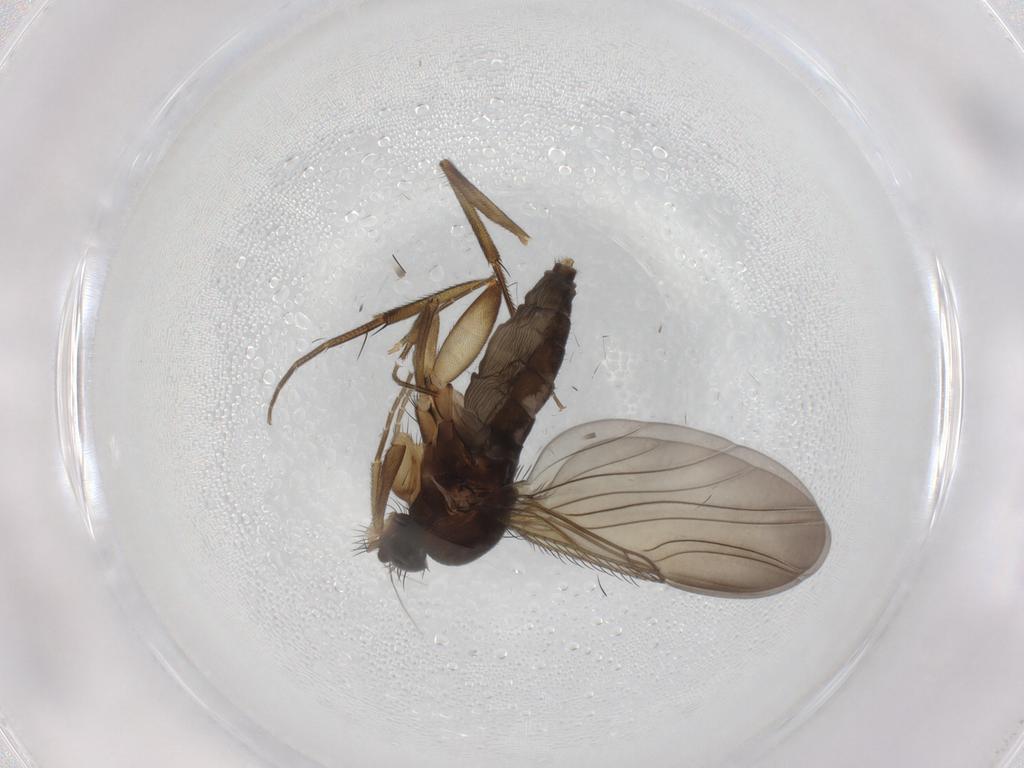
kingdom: Animalia
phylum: Arthropoda
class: Insecta
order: Diptera
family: Phoridae
